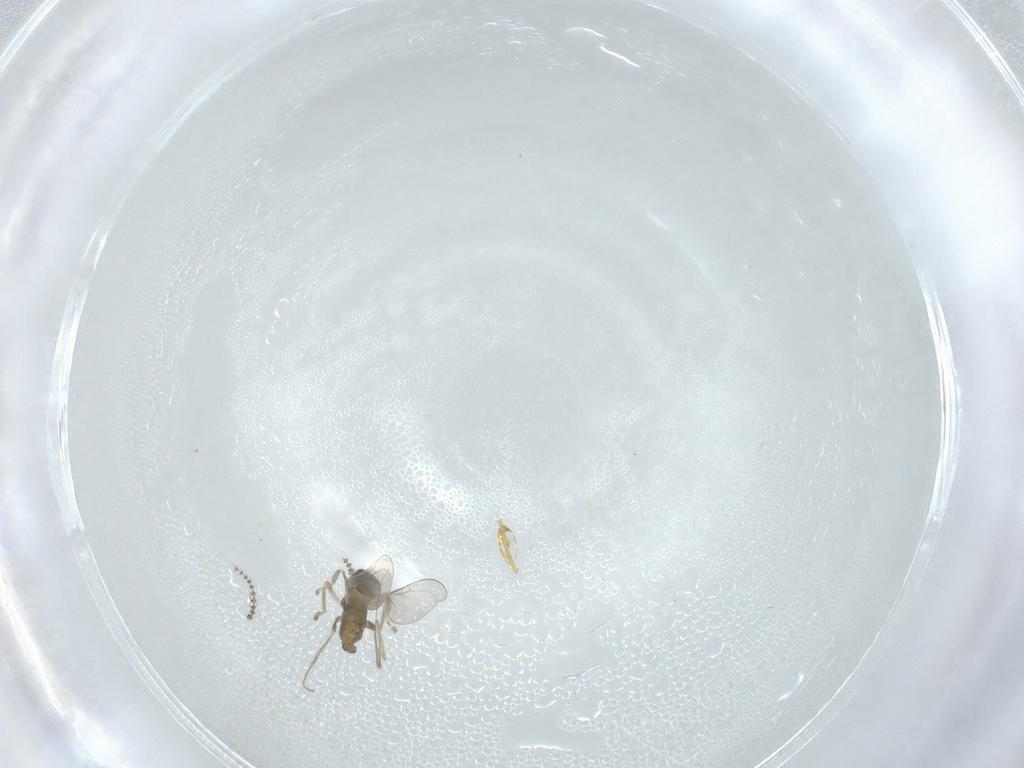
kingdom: Animalia
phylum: Arthropoda
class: Insecta
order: Diptera
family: Cecidomyiidae
